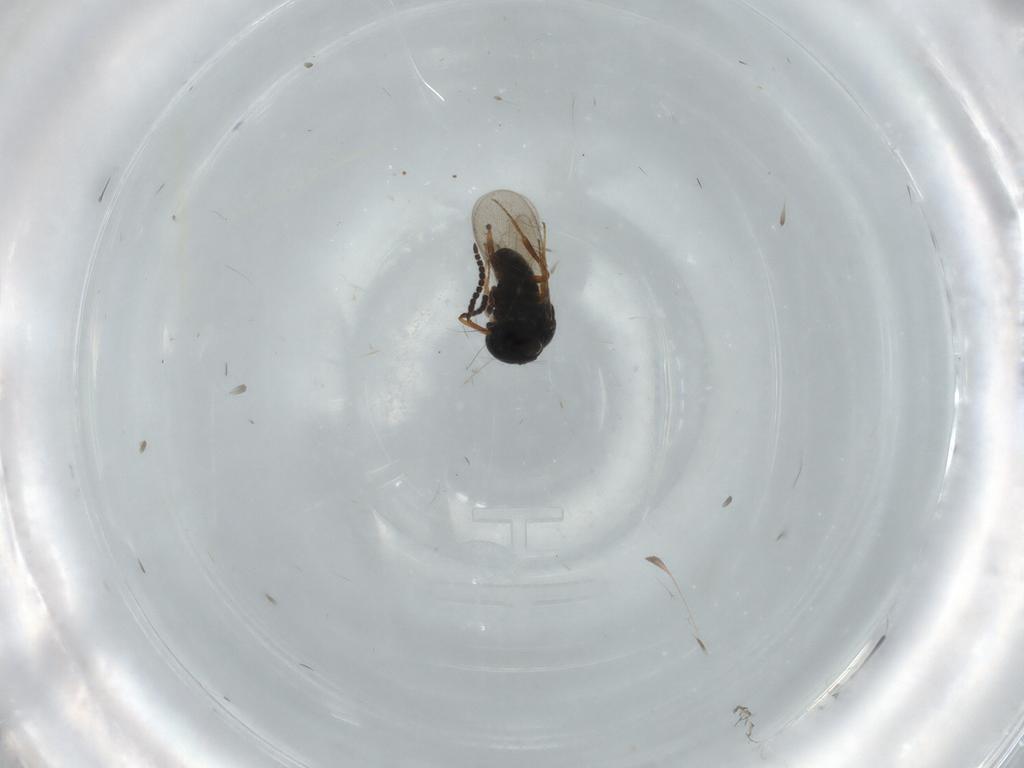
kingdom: Animalia
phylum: Arthropoda
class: Insecta
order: Hymenoptera
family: Scelionidae
